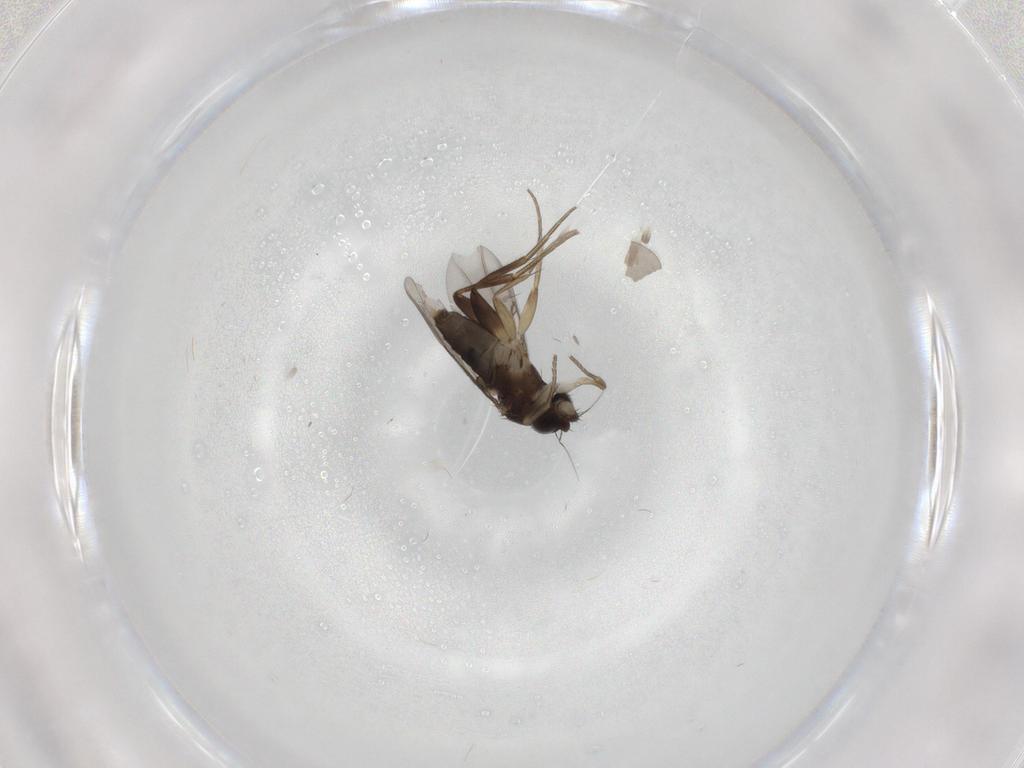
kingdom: Animalia
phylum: Arthropoda
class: Insecta
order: Diptera
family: Phoridae
